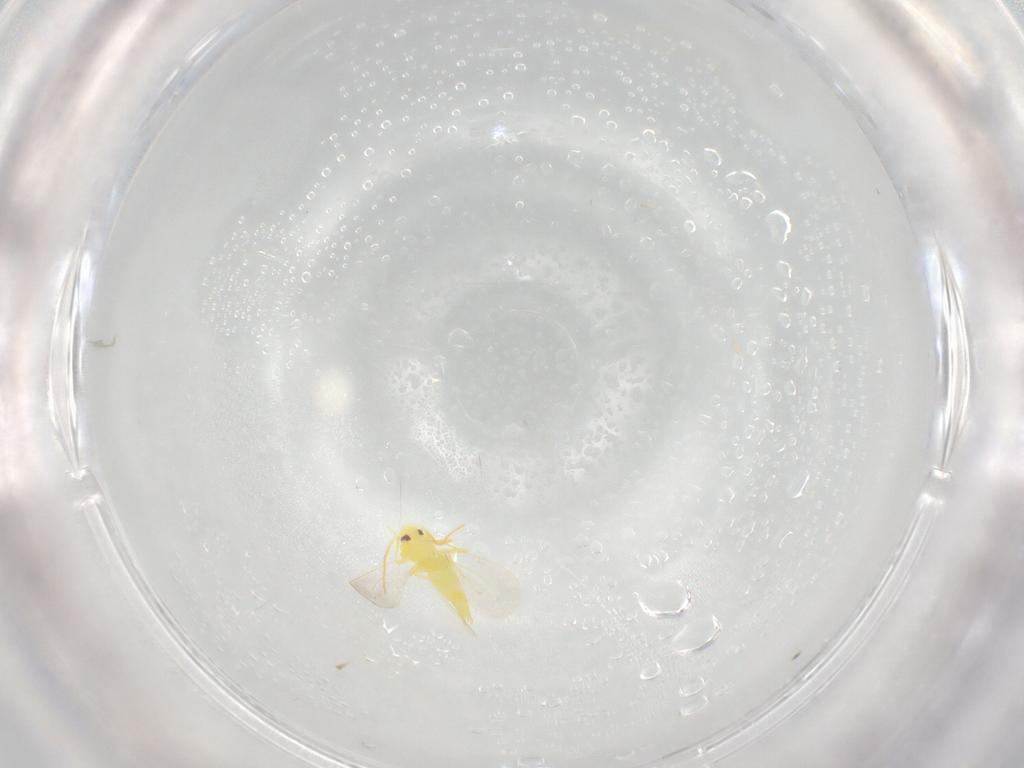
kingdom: Animalia
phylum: Arthropoda
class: Insecta
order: Hemiptera
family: Aleyrodidae
